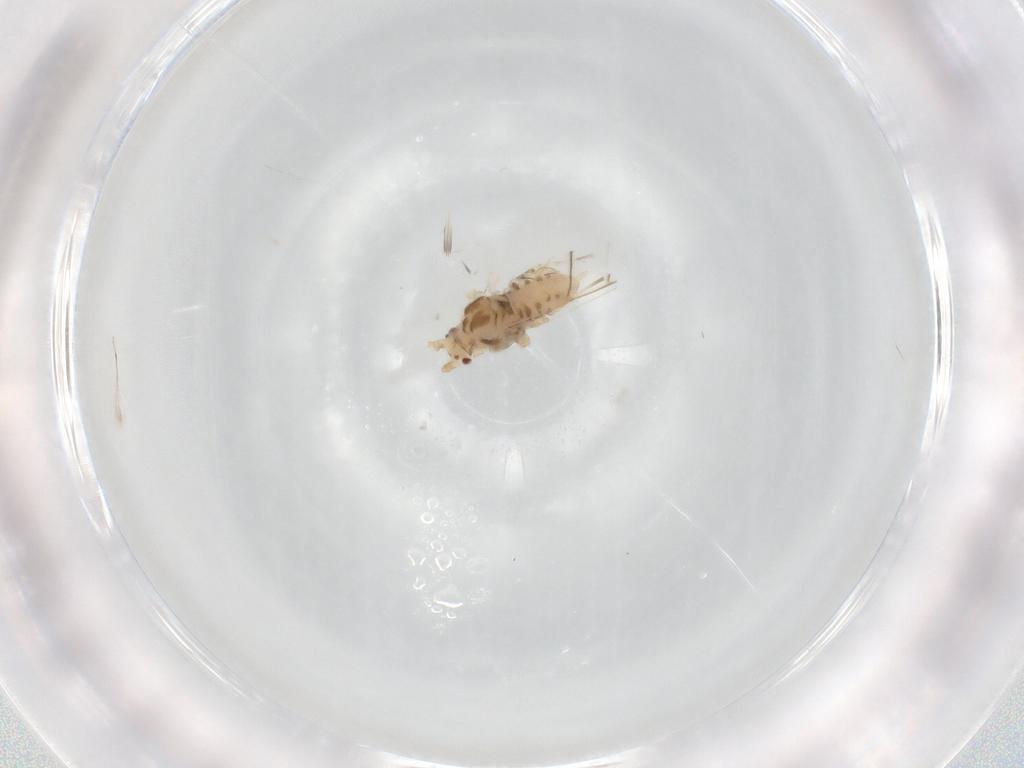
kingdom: Animalia
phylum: Arthropoda
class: Insecta
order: Hemiptera
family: Aphididae
